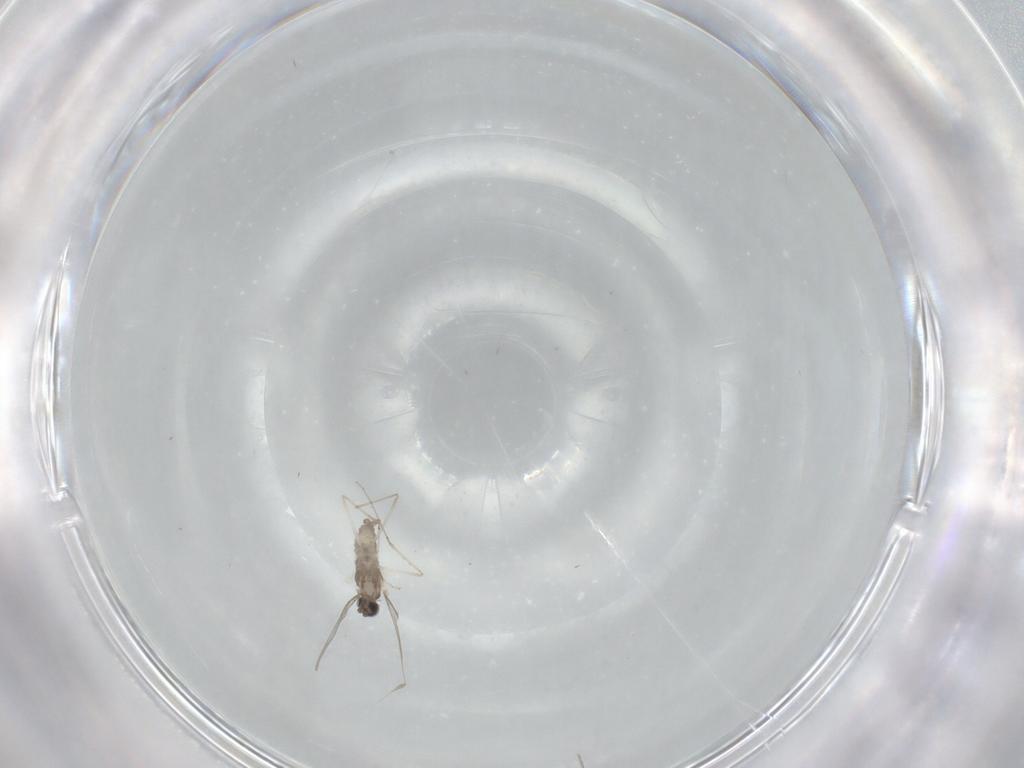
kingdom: Animalia
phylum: Arthropoda
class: Insecta
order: Diptera
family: Cecidomyiidae
